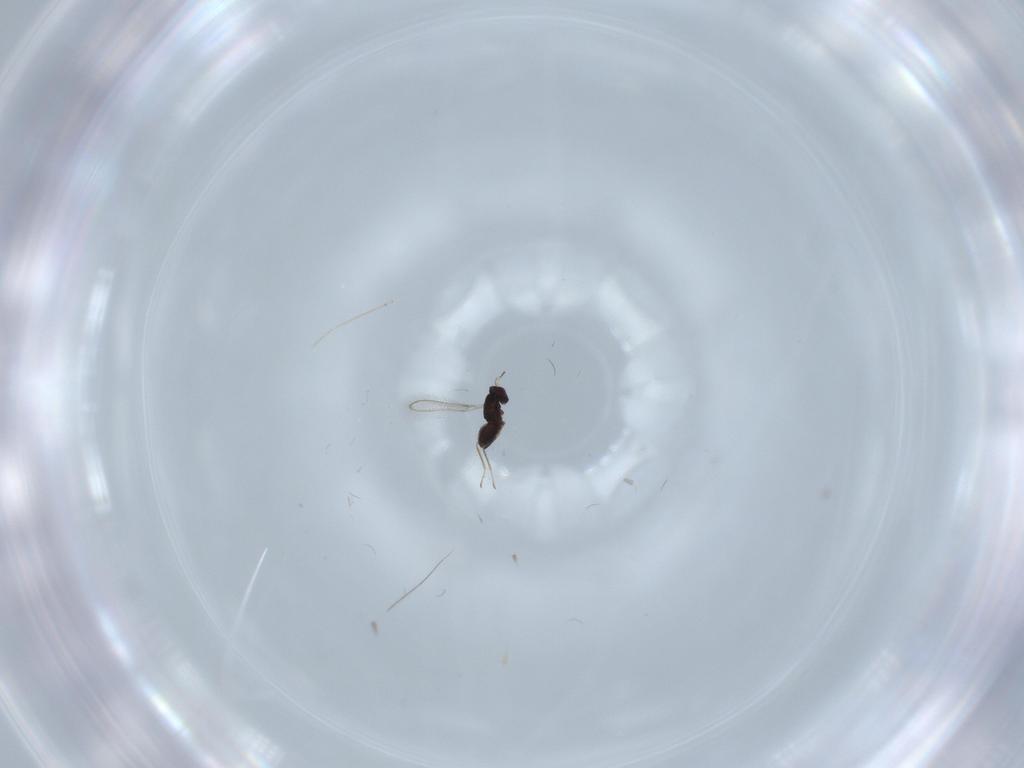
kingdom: Animalia
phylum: Arthropoda
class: Insecta
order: Hymenoptera
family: Mymaridae
